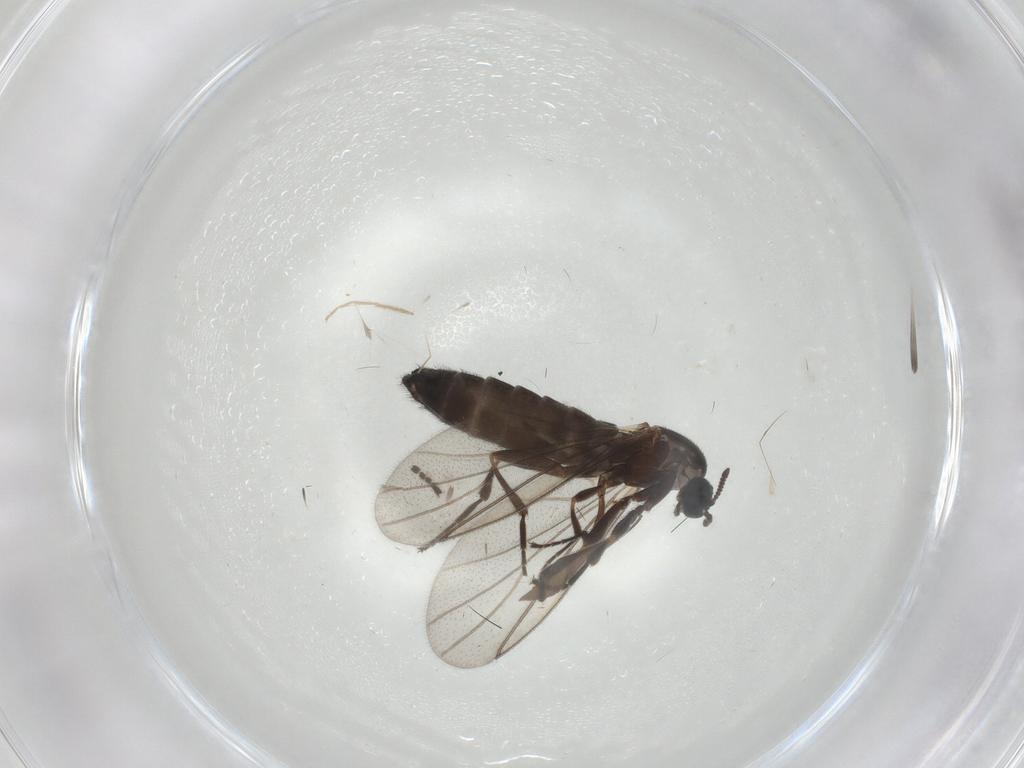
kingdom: Animalia
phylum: Arthropoda
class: Insecta
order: Diptera
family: Scatopsidae
